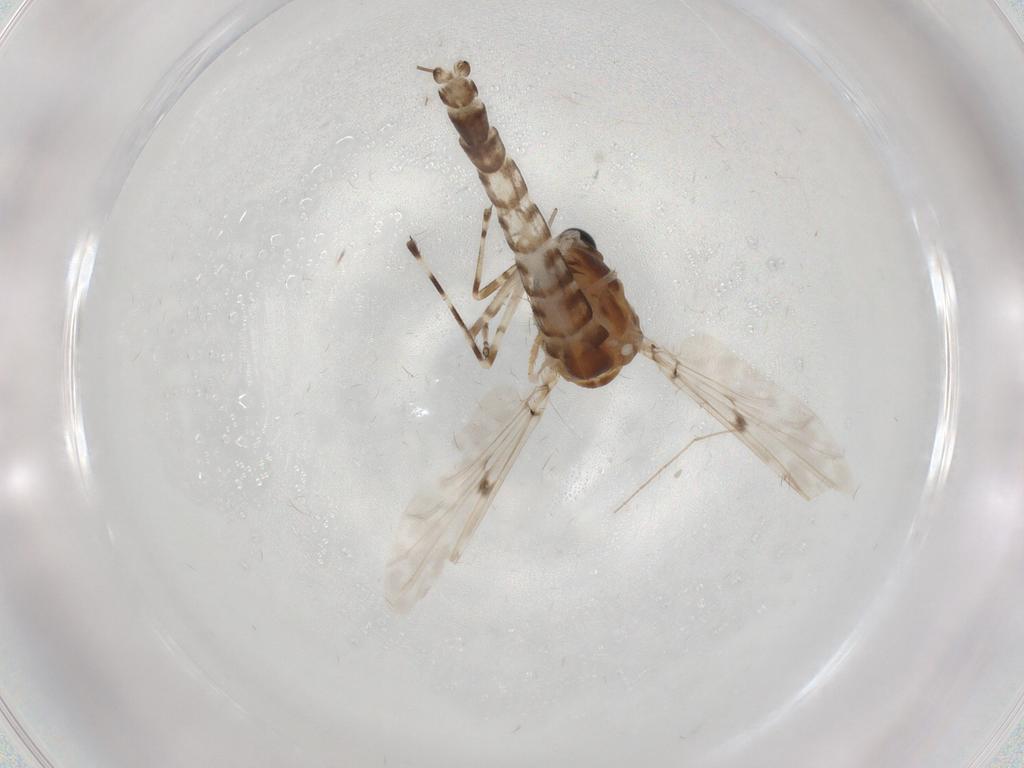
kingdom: Animalia
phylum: Arthropoda
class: Insecta
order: Diptera
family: Chironomidae
